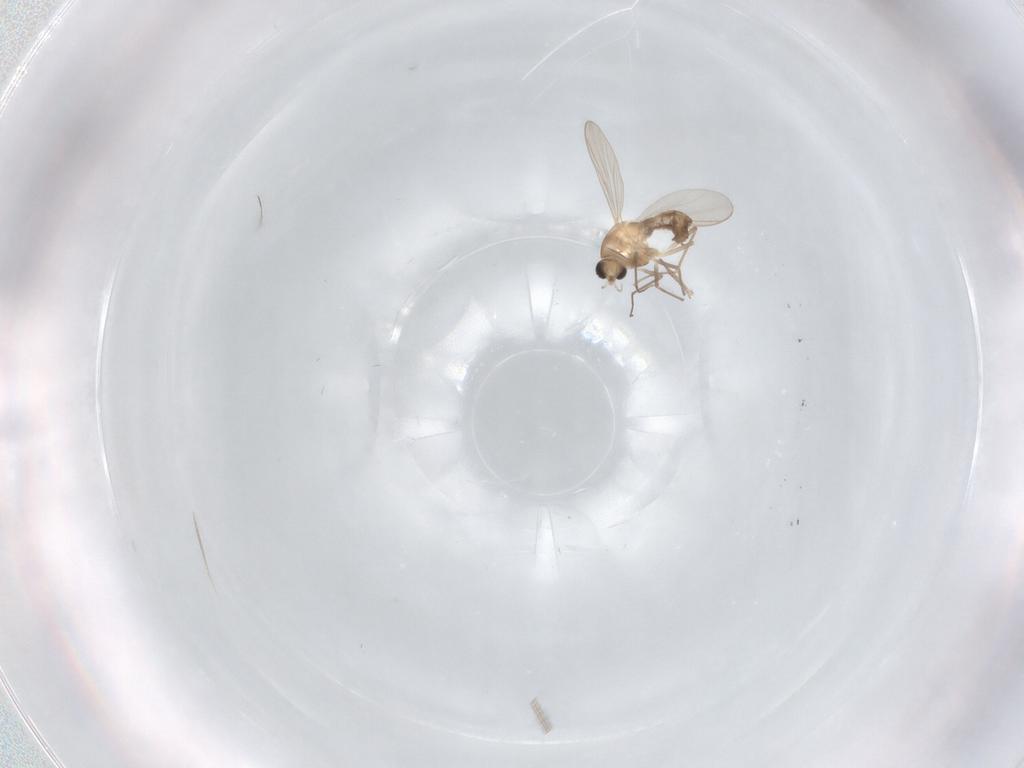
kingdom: Animalia
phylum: Arthropoda
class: Insecta
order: Diptera
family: Chironomidae
